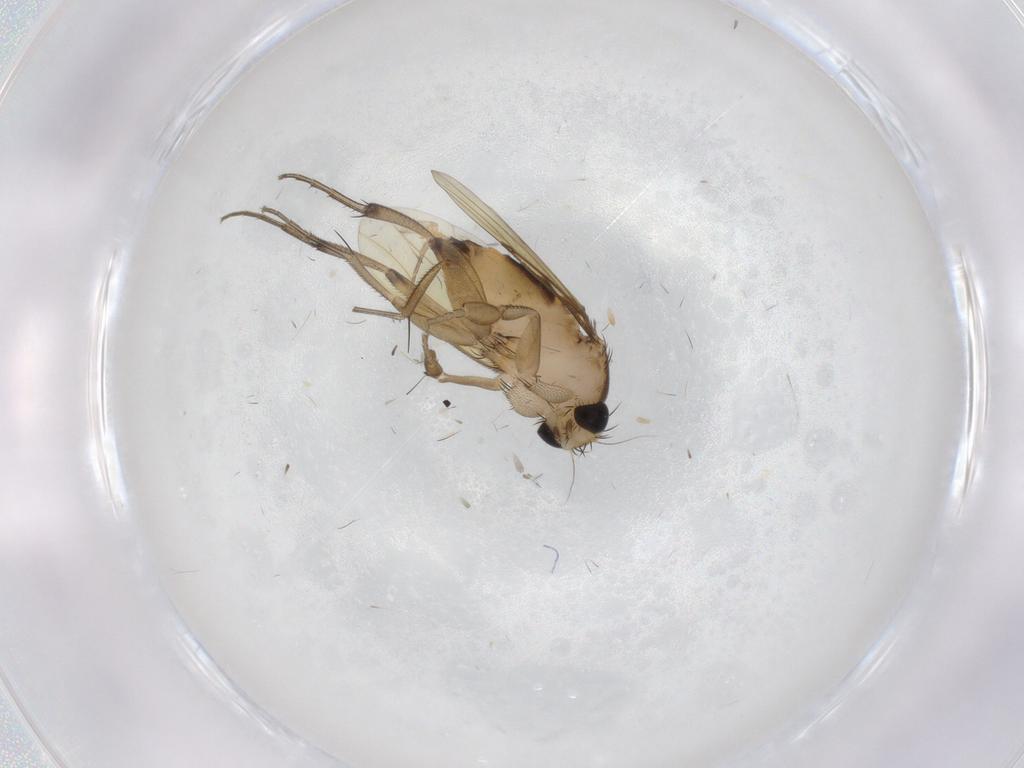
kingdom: Animalia
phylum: Arthropoda
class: Insecta
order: Diptera
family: Phoridae
